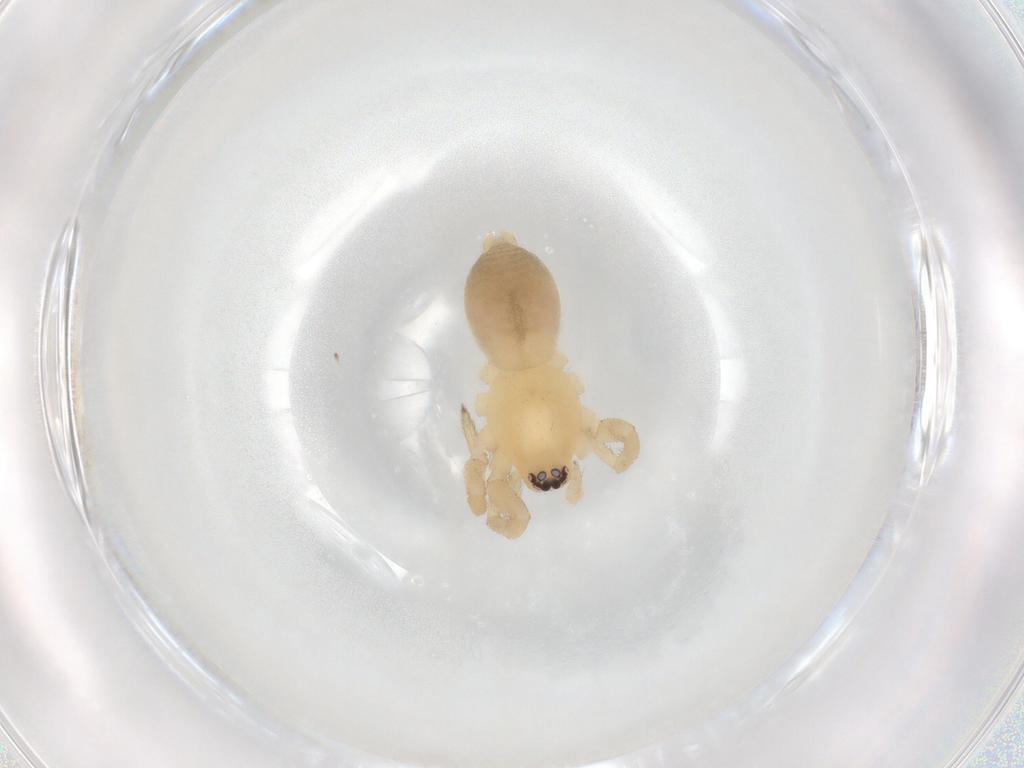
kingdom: Animalia
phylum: Arthropoda
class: Arachnida
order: Araneae
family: Gnaphosidae
